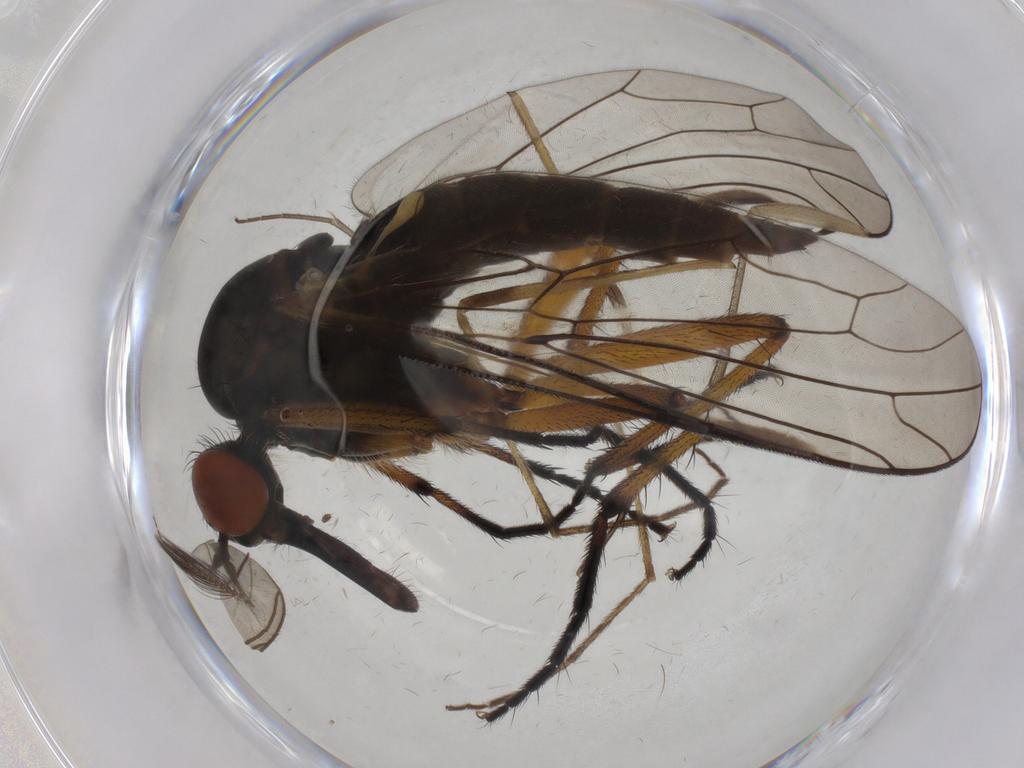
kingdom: Animalia
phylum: Arthropoda
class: Insecta
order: Diptera
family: Empididae
